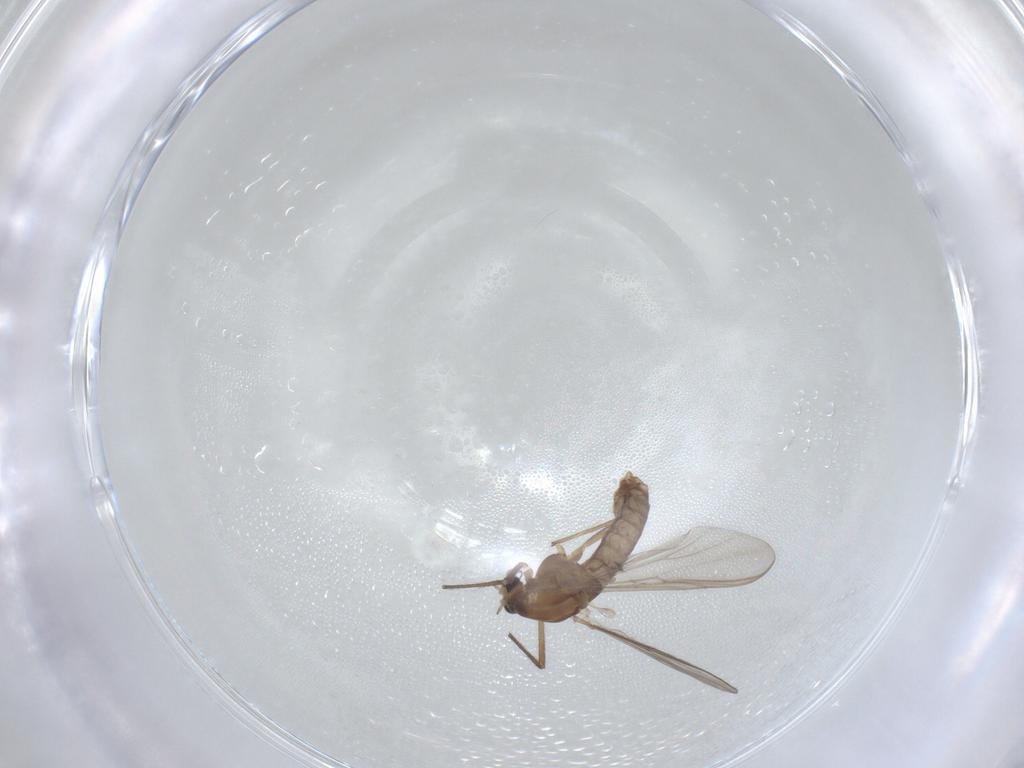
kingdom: Animalia
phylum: Arthropoda
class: Insecta
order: Diptera
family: Chironomidae
